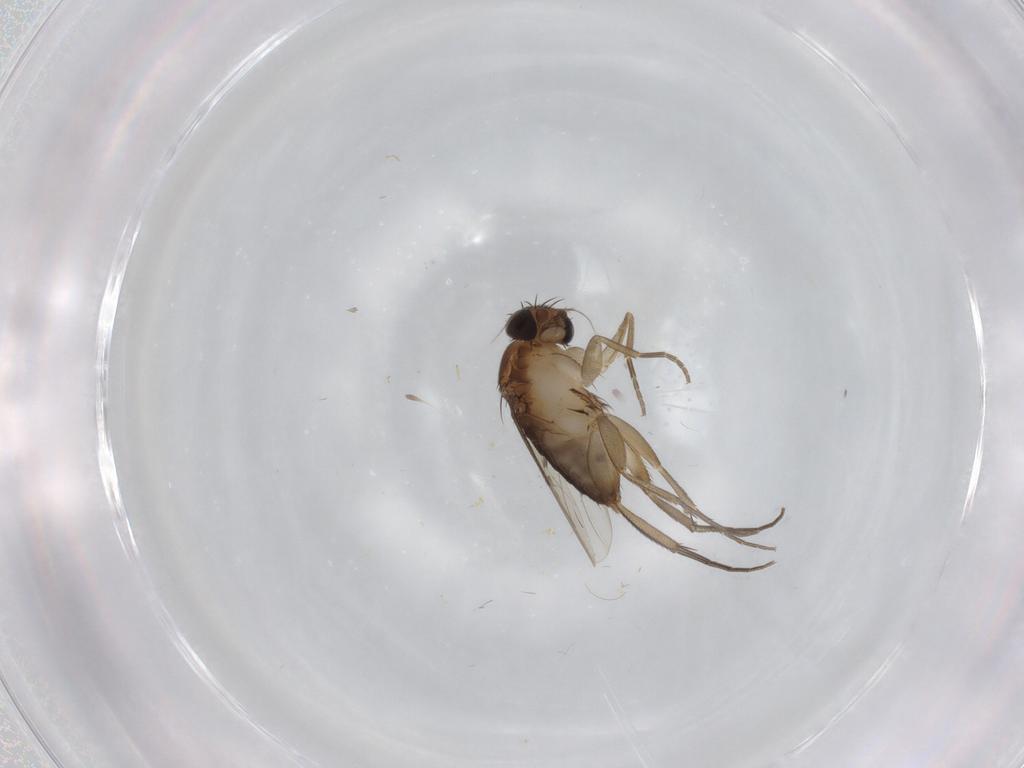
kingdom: Animalia
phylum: Arthropoda
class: Insecta
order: Diptera
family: Phoridae
